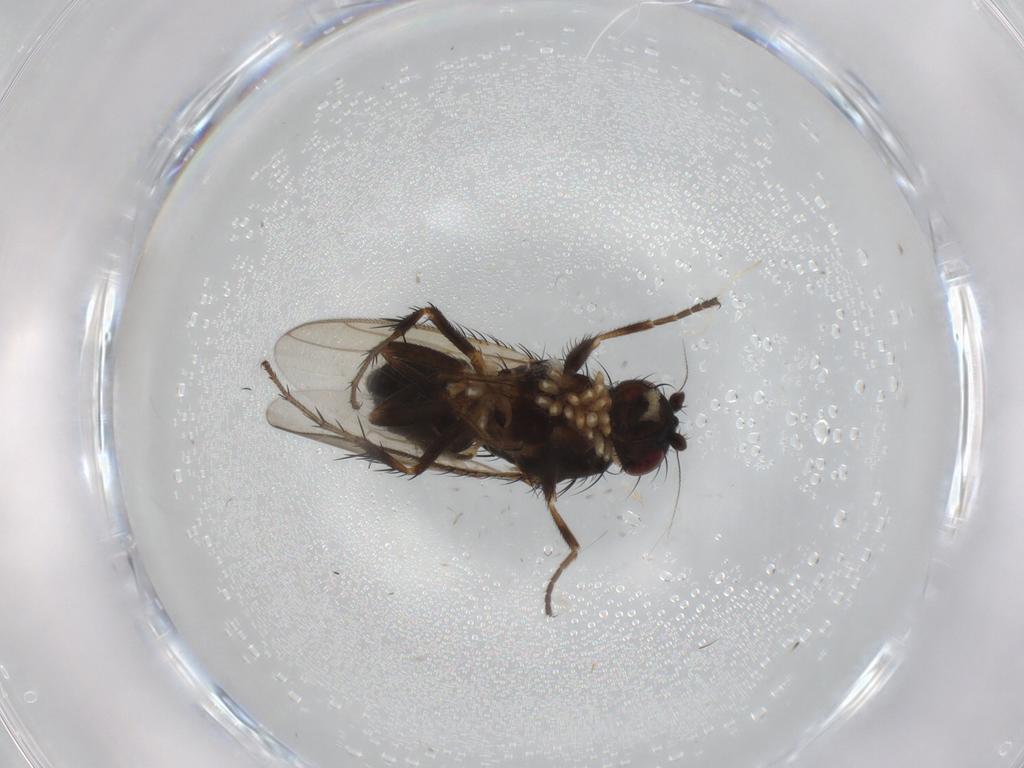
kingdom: Animalia
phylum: Arthropoda
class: Insecta
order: Diptera
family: Sphaeroceridae
